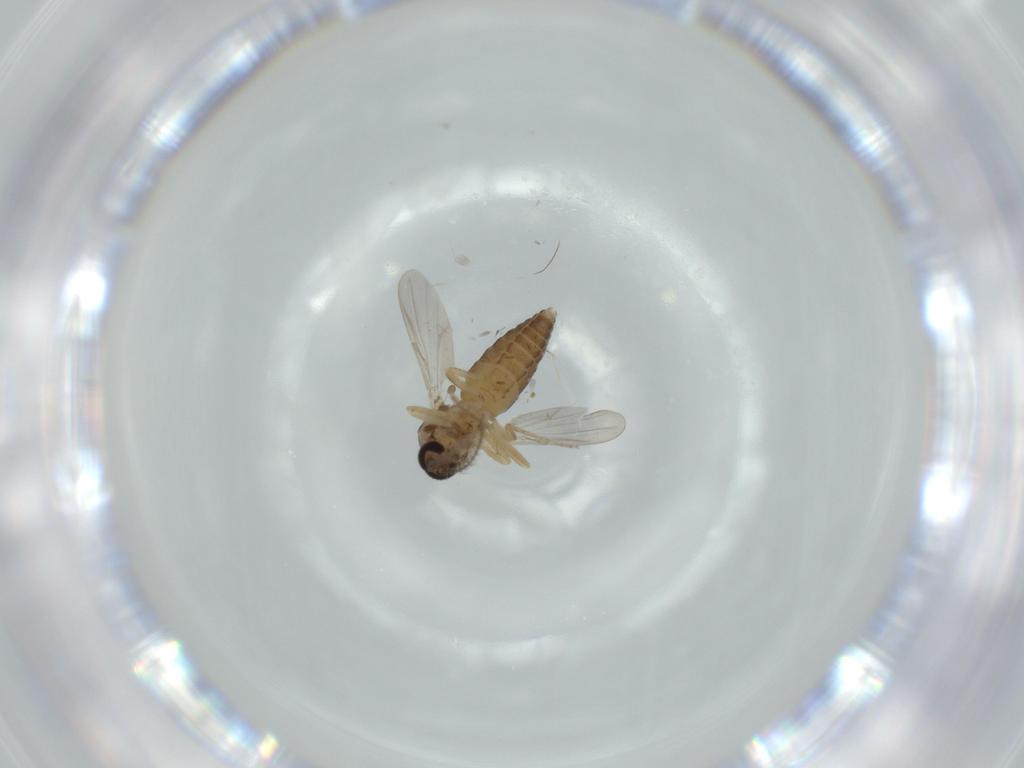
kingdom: Animalia
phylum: Arthropoda
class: Insecta
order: Diptera
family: Ceratopogonidae
